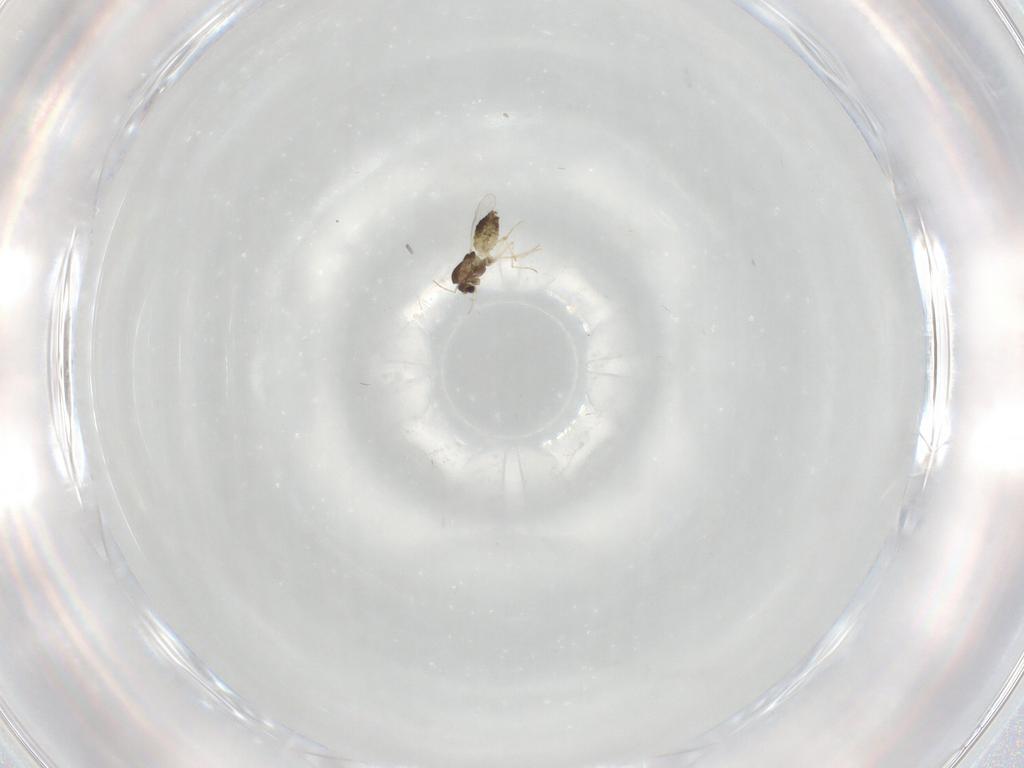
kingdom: Animalia
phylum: Arthropoda
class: Insecta
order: Diptera
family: Chironomidae
